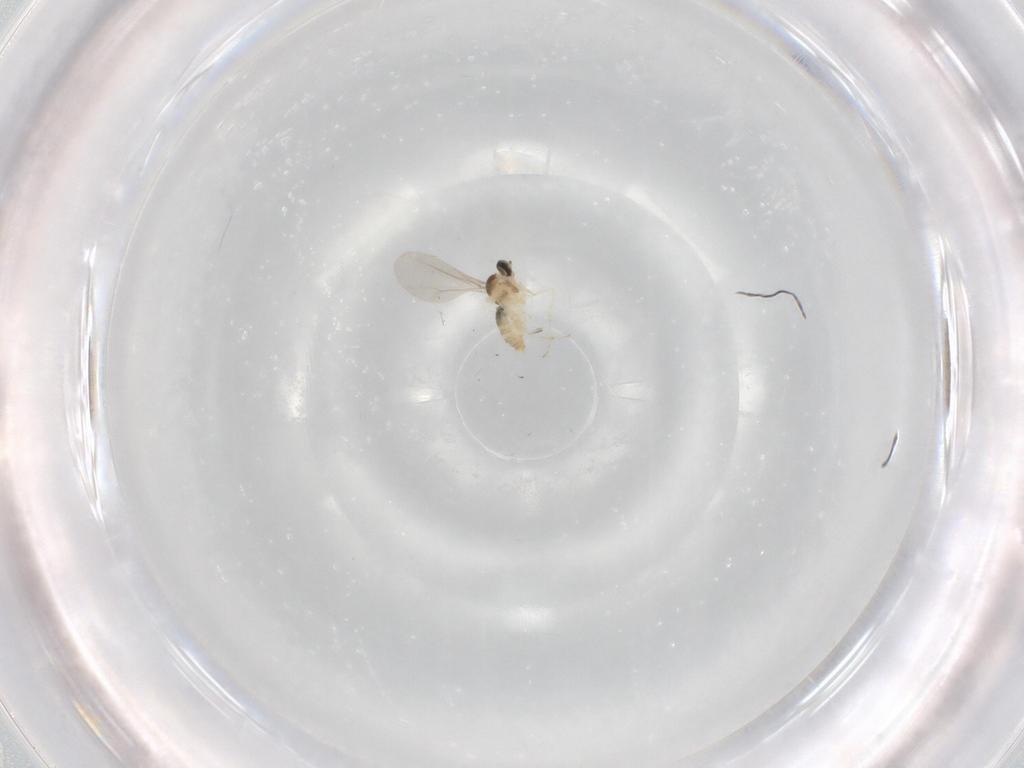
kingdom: Animalia
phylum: Arthropoda
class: Insecta
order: Diptera
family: Cecidomyiidae
